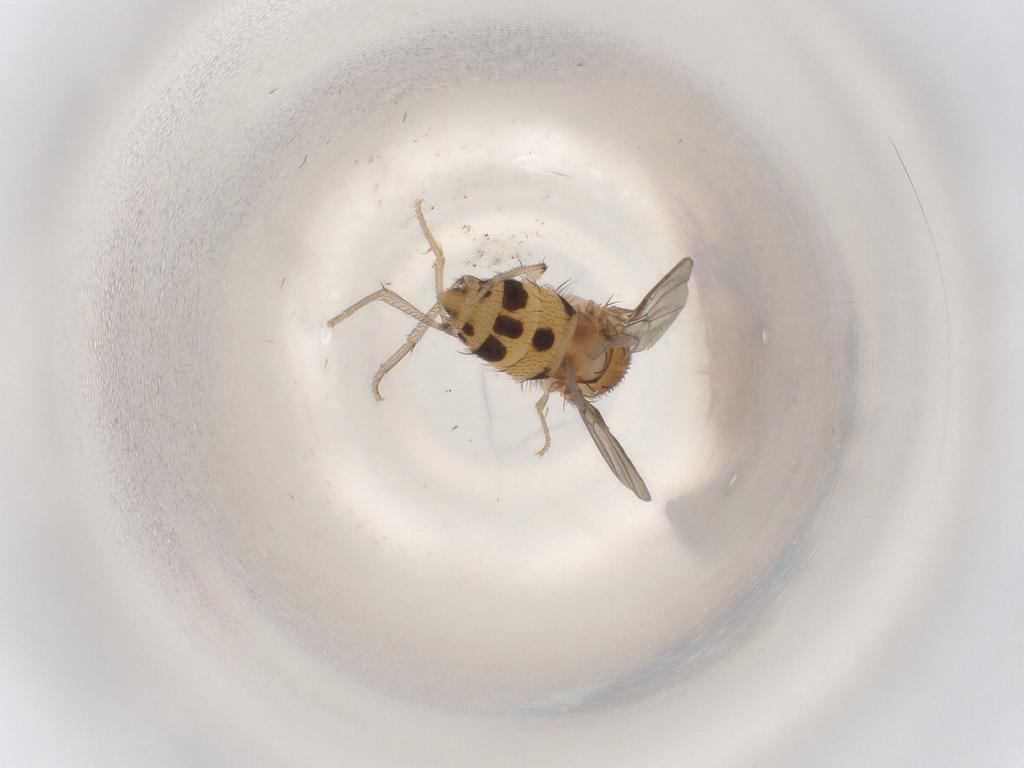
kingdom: Animalia
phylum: Arthropoda
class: Insecta
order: Diptera
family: Drosophilidae
